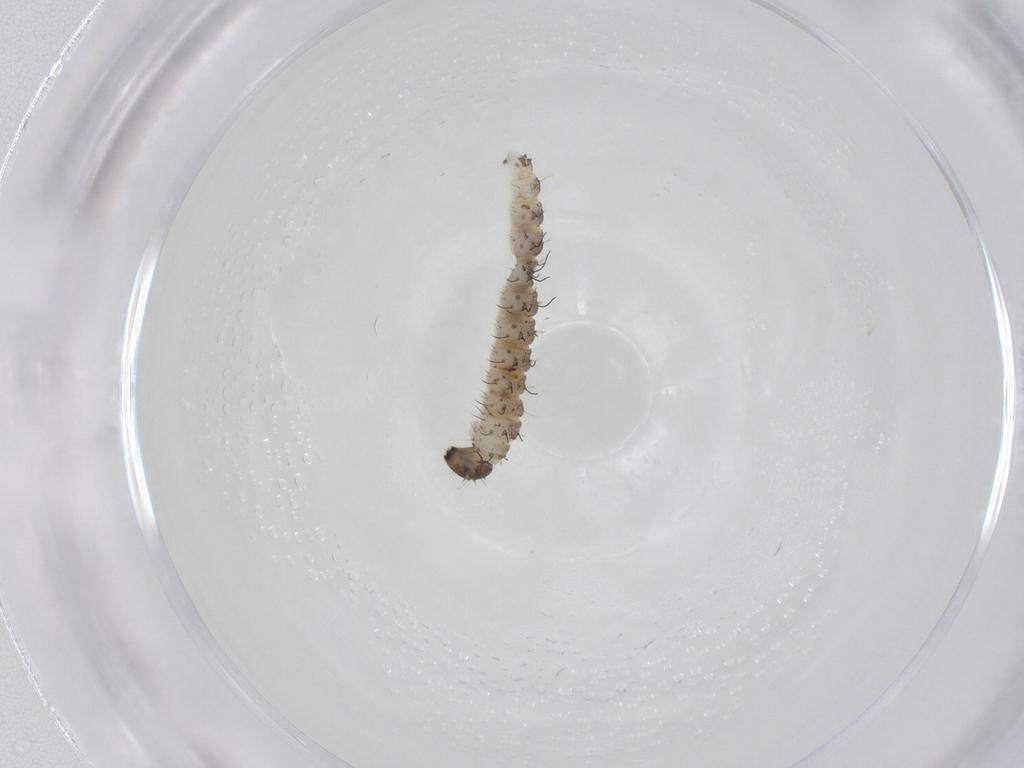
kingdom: Animalia
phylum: Arthropoda
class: Insecta
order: Diptera
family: Ceratopogonidae
